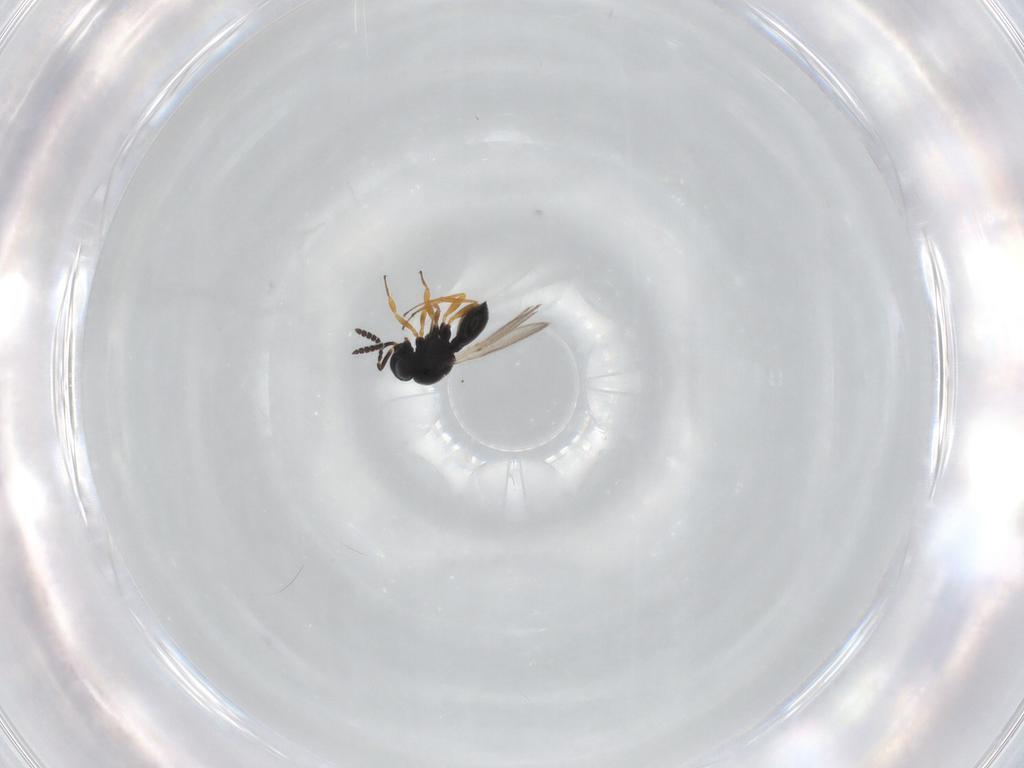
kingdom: Animalia
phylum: Arthropoda
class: Insecta
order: Hymenoptera
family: Scelionidae
